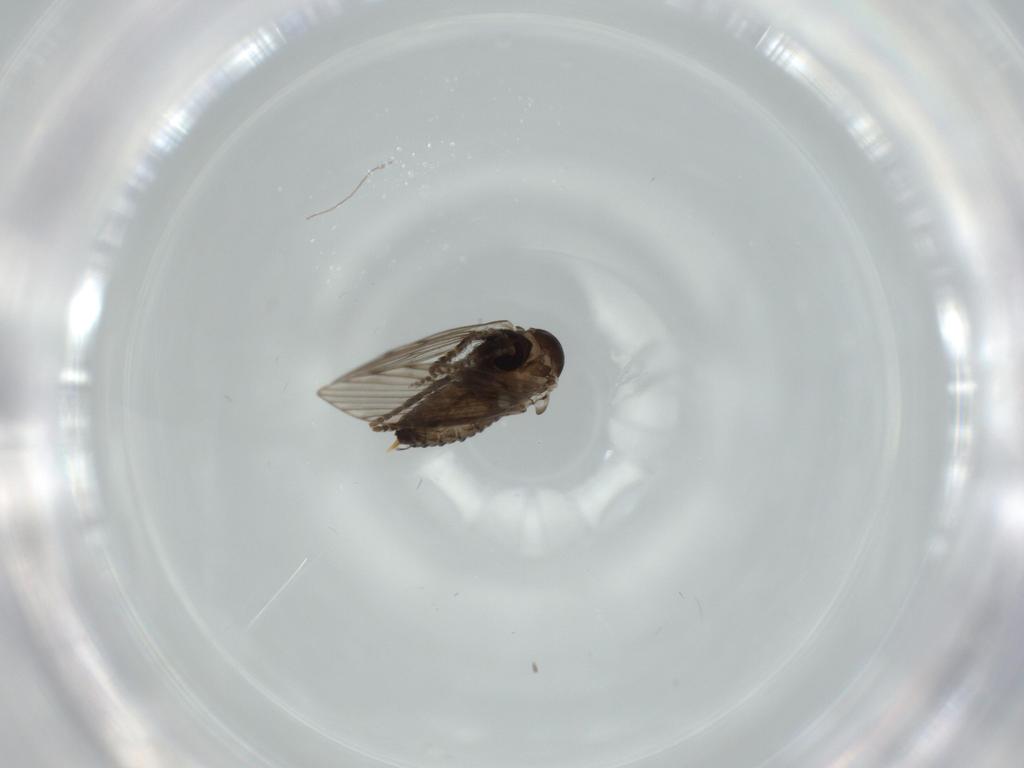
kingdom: Animalia
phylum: Arthropoda
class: Insecta
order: Diptera
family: Psychodidae
